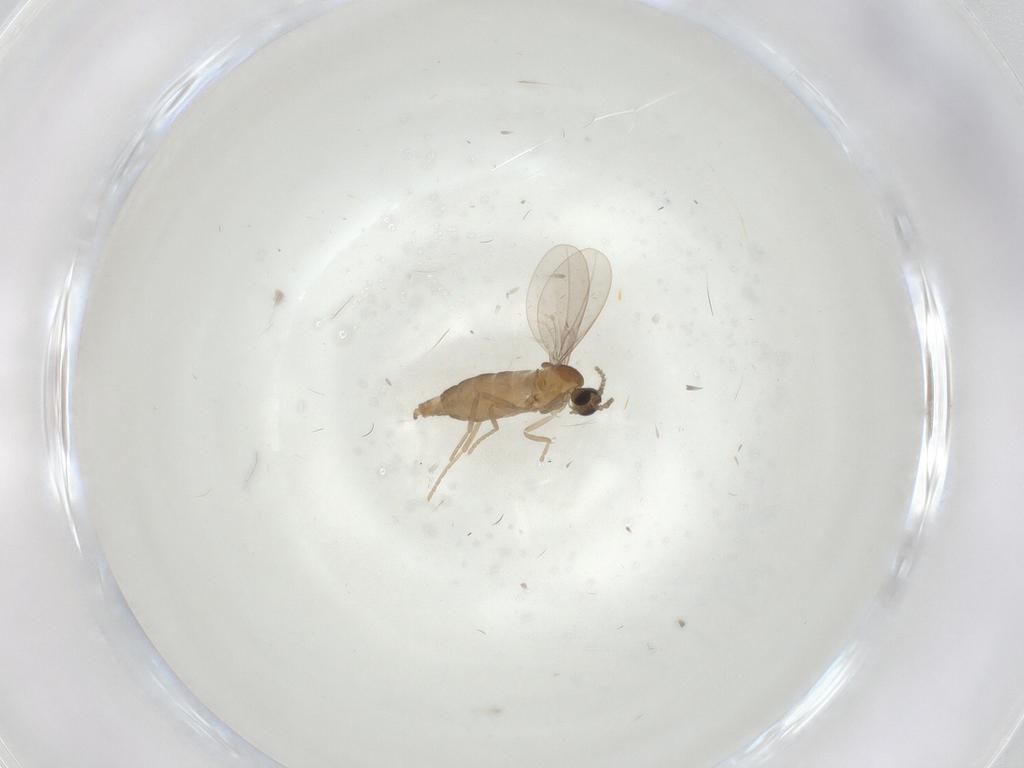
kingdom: Animalia
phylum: Arthropoda
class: Insecta
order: Diptera
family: Cecidomyiidae
